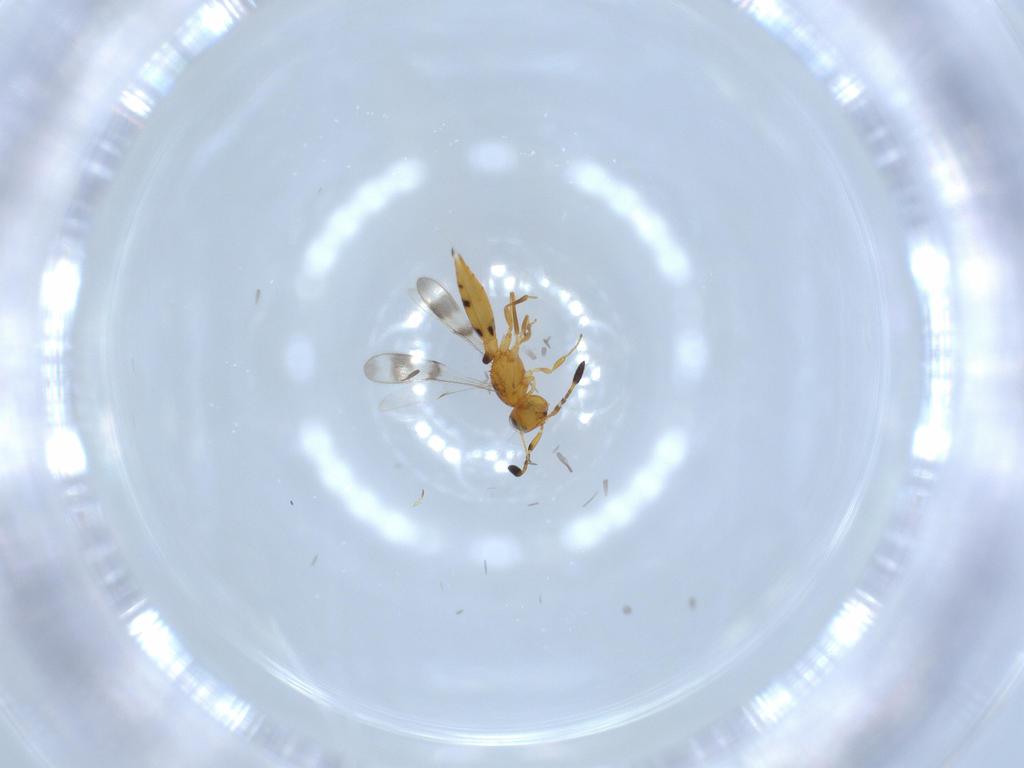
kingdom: Animalia
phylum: Arthropoda
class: Insecta
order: Hymenoptera
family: Scelionidae
